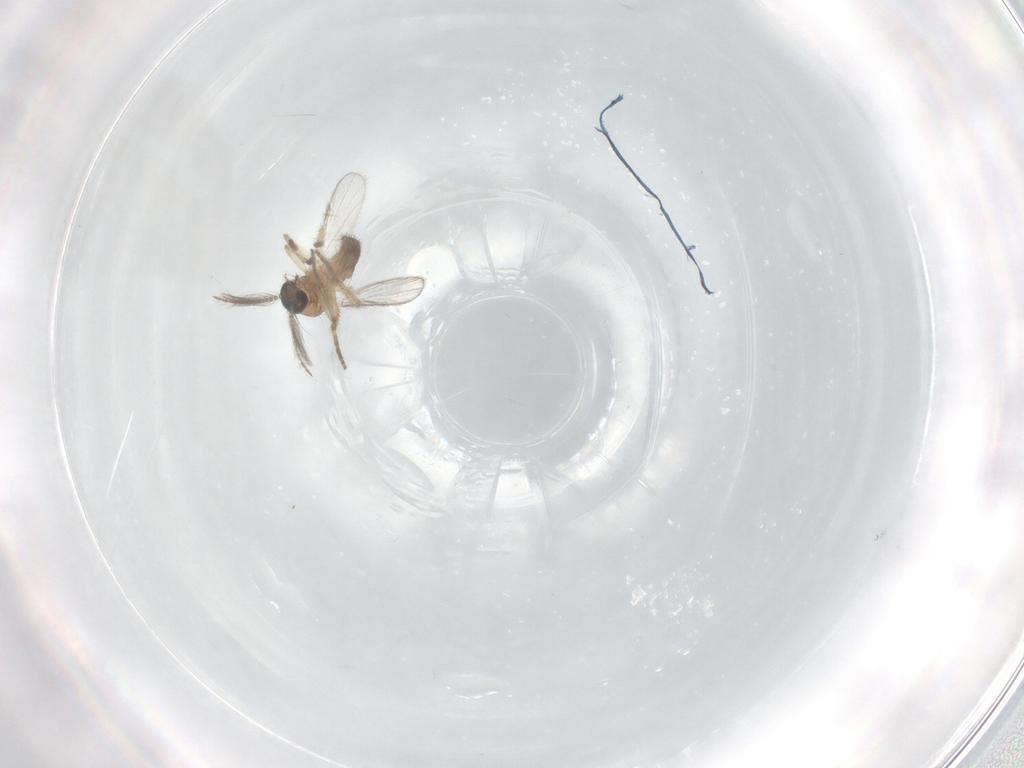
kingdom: Animalia
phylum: Arthropoda
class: Insecta
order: Diptera
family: Ceratopogonidae
